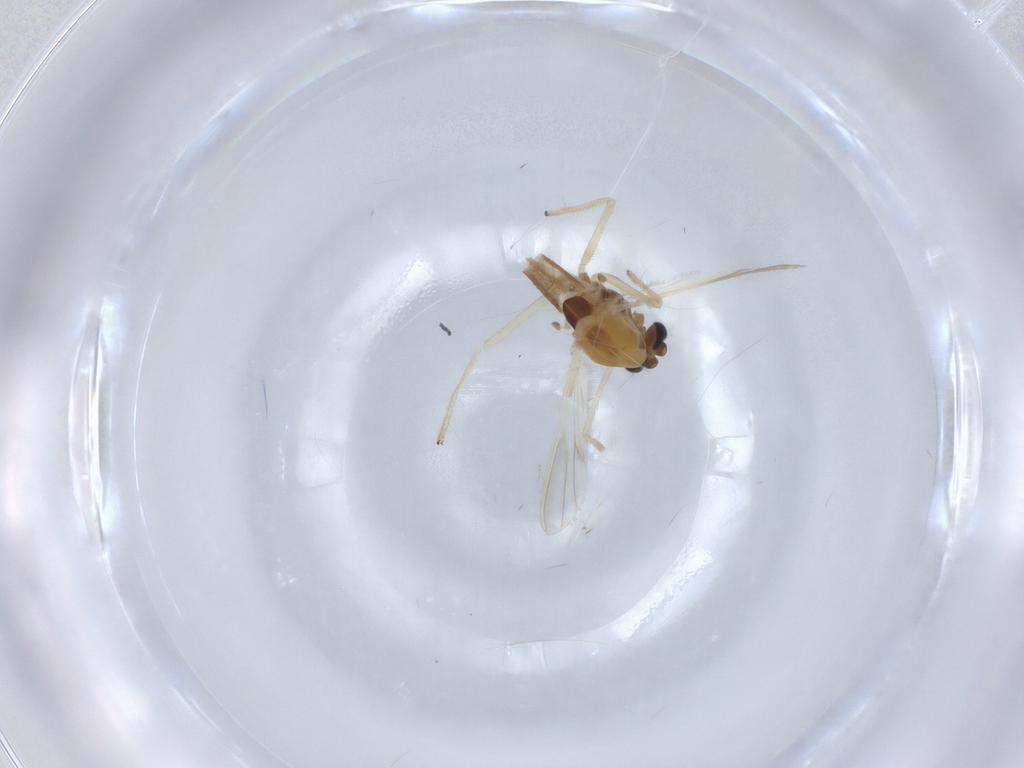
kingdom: Animalia
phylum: Arthropoda
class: Insecta
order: Diptera
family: Chironomidae
